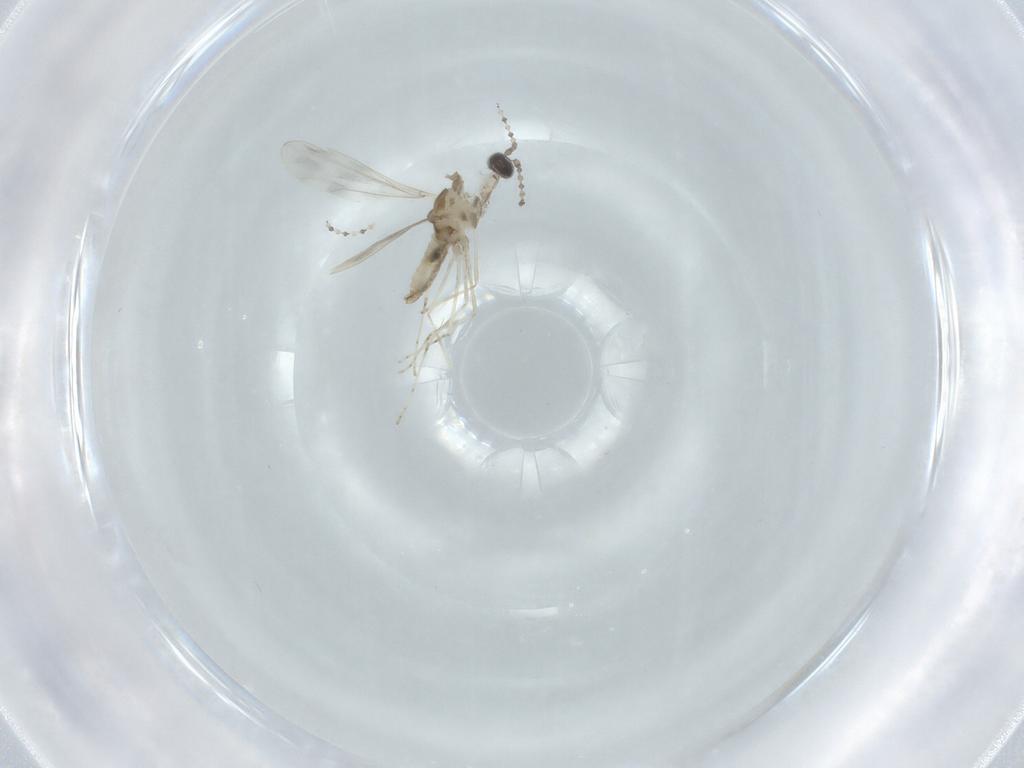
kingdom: Animalia
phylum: Arthropoda
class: Insecta
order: Diptera
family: Cecidomyiidae
